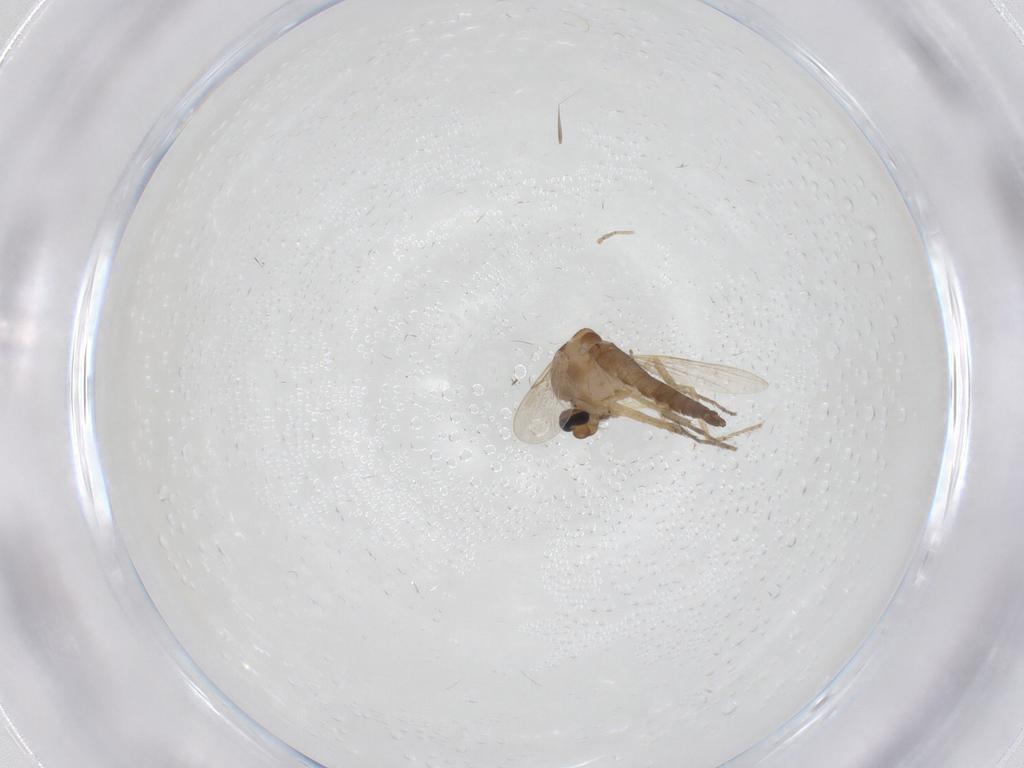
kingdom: Animalia
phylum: Arthropoda
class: Insecta
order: Diptera
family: Ceratopogonidae
